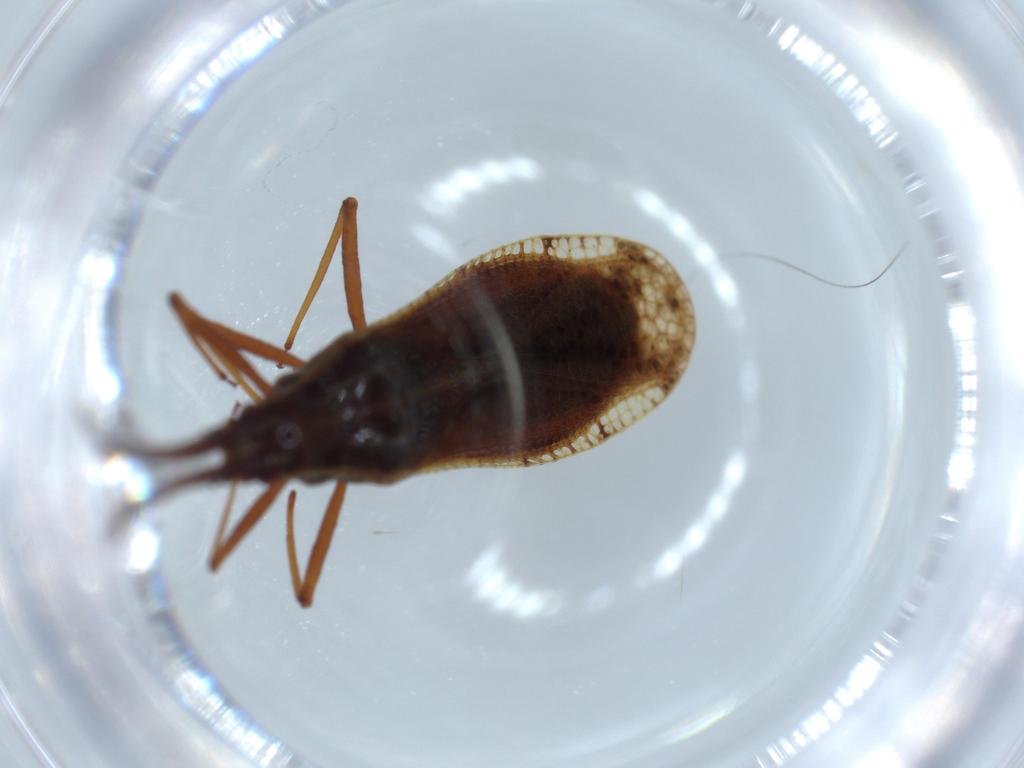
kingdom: Animalia
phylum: Arthropoda
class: Insecta
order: Hemiptera
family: Tingidae
